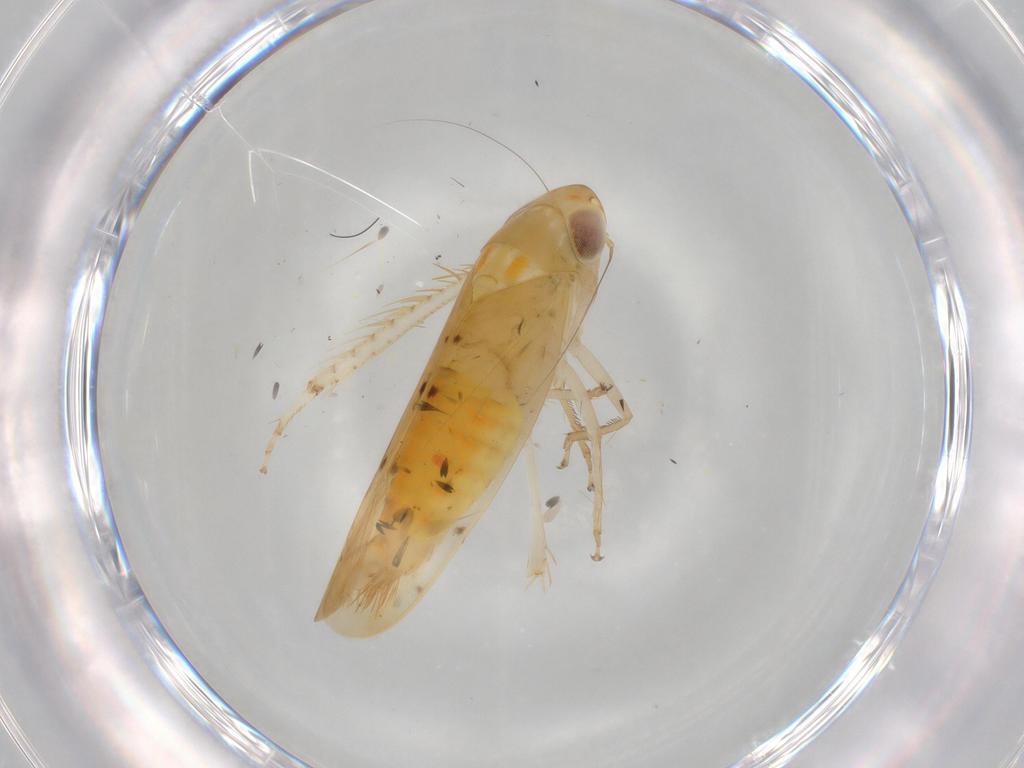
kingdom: Animalia
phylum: Arthropoda
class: Insecta
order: Hemiptera
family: Cicadellidae
